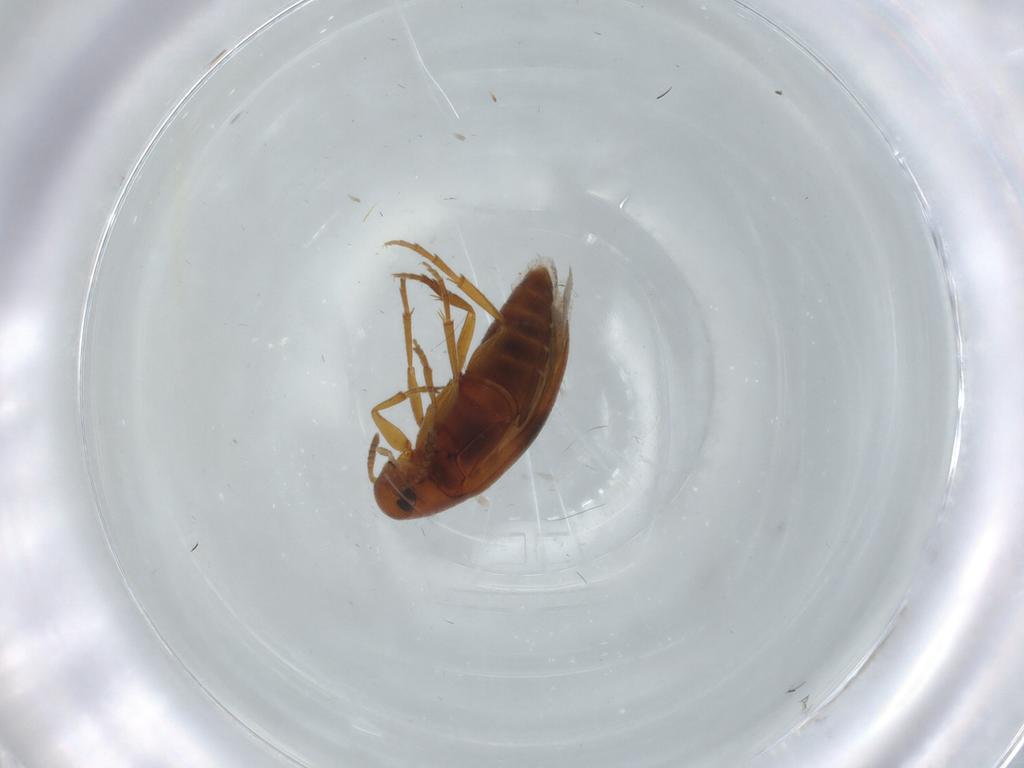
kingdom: Animalia
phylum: Arthropoda
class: Insecta
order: Coleoptera
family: Scraptiidae
